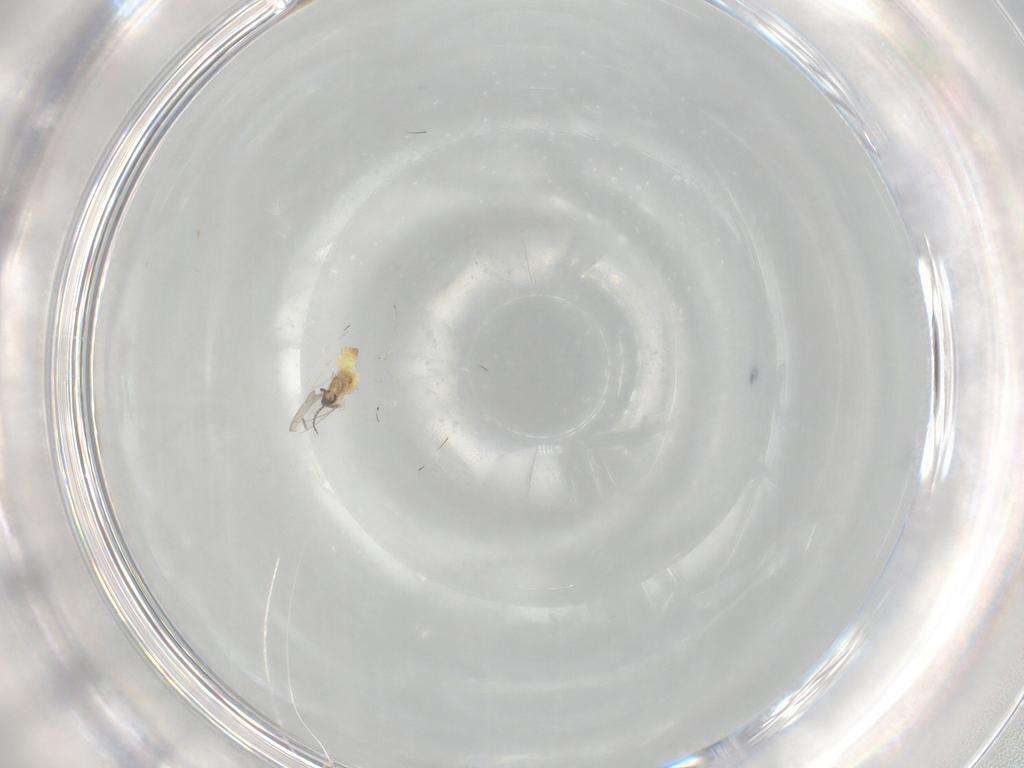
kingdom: Animalia
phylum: Arthropoda
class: Insecta
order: Diptera
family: Cecidomyiidae
